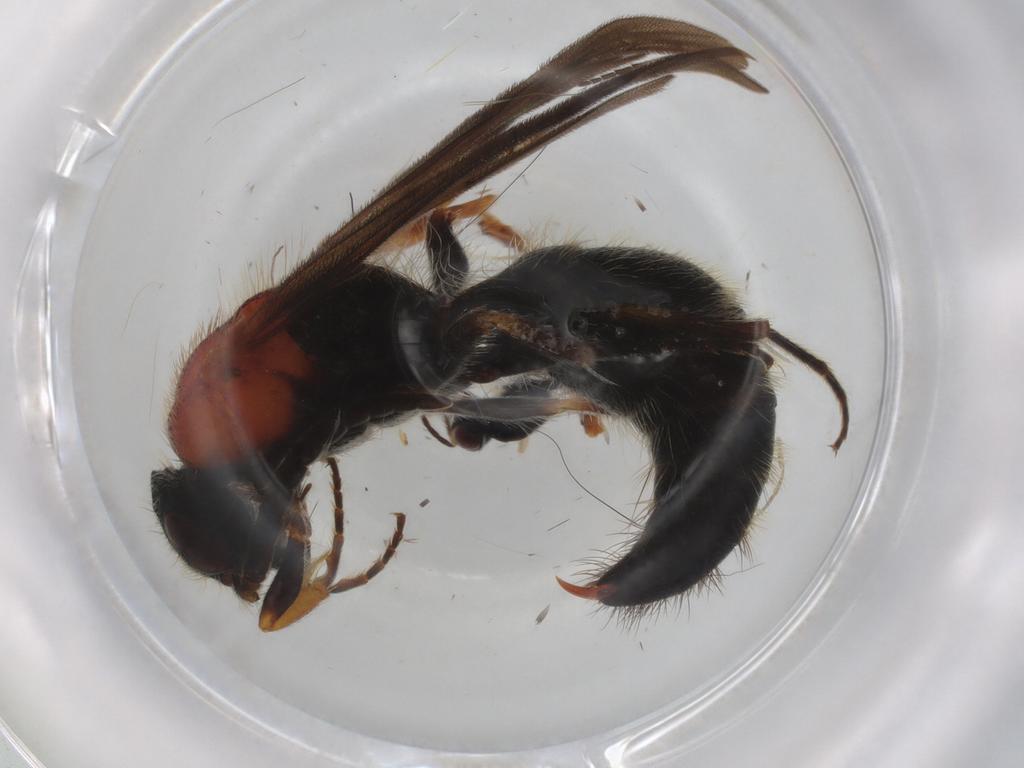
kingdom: Animalia
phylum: Arthropoda
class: Insecta
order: Hymenoptera
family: Eulophidae
